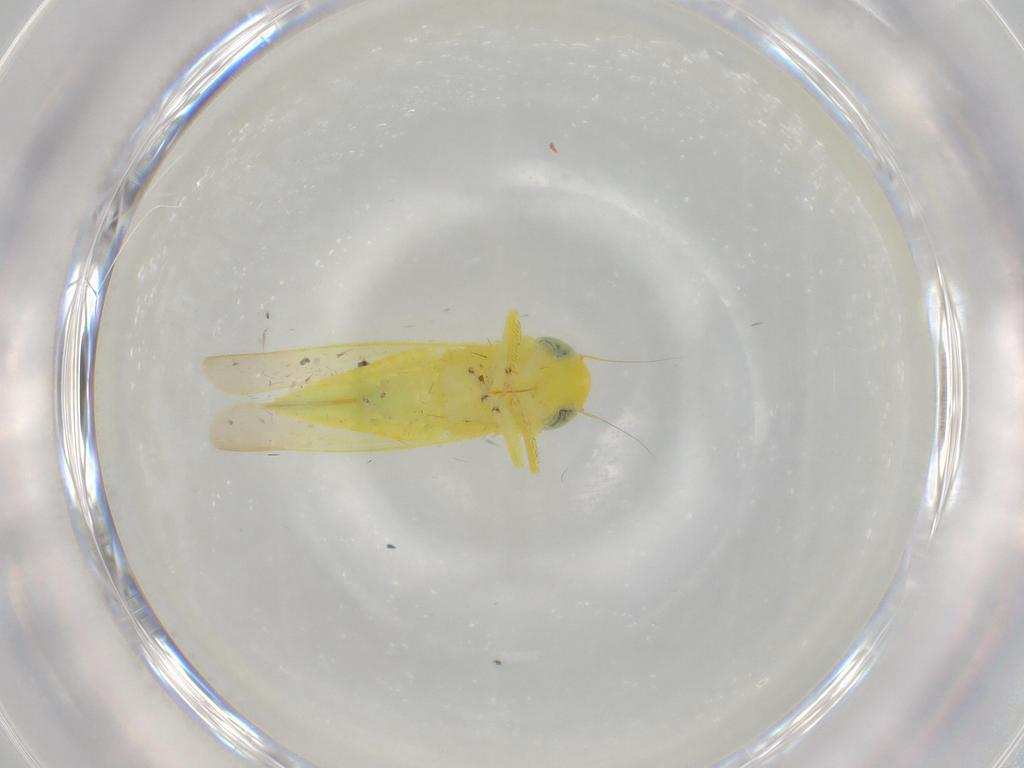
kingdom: Animalia
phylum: Arthropoda
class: Insecta
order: Hemiptera
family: Cicadellidae
